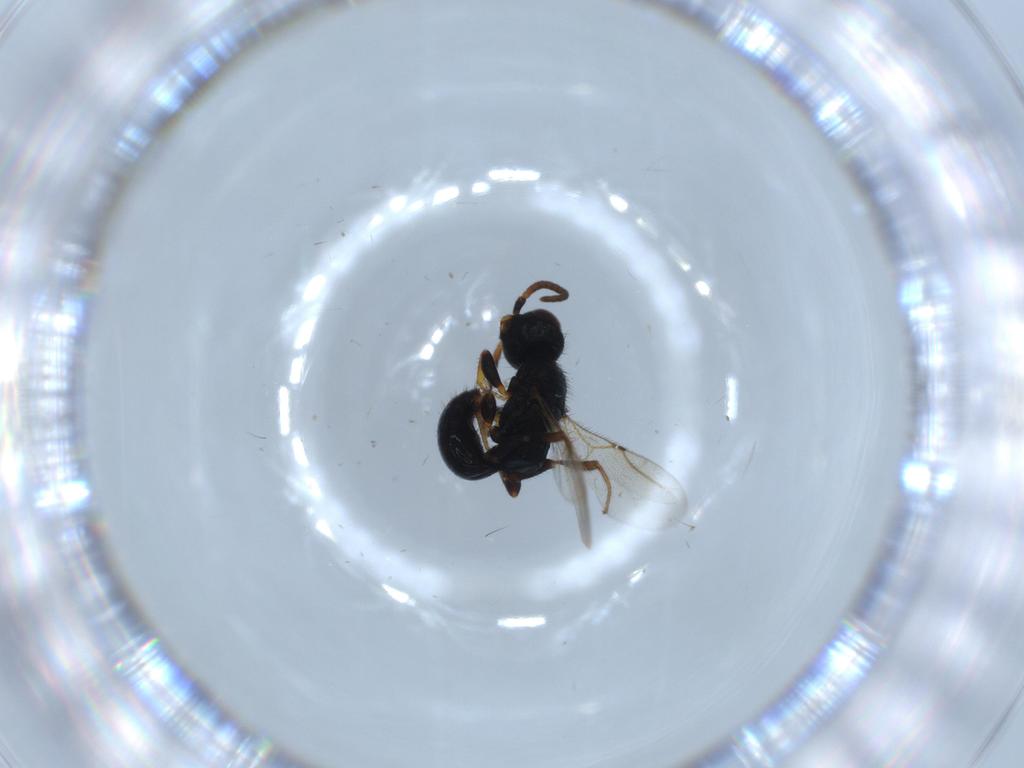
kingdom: Animalia
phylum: Arthropoda
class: Insecta
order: Hymenoptera
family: Bethylidae
